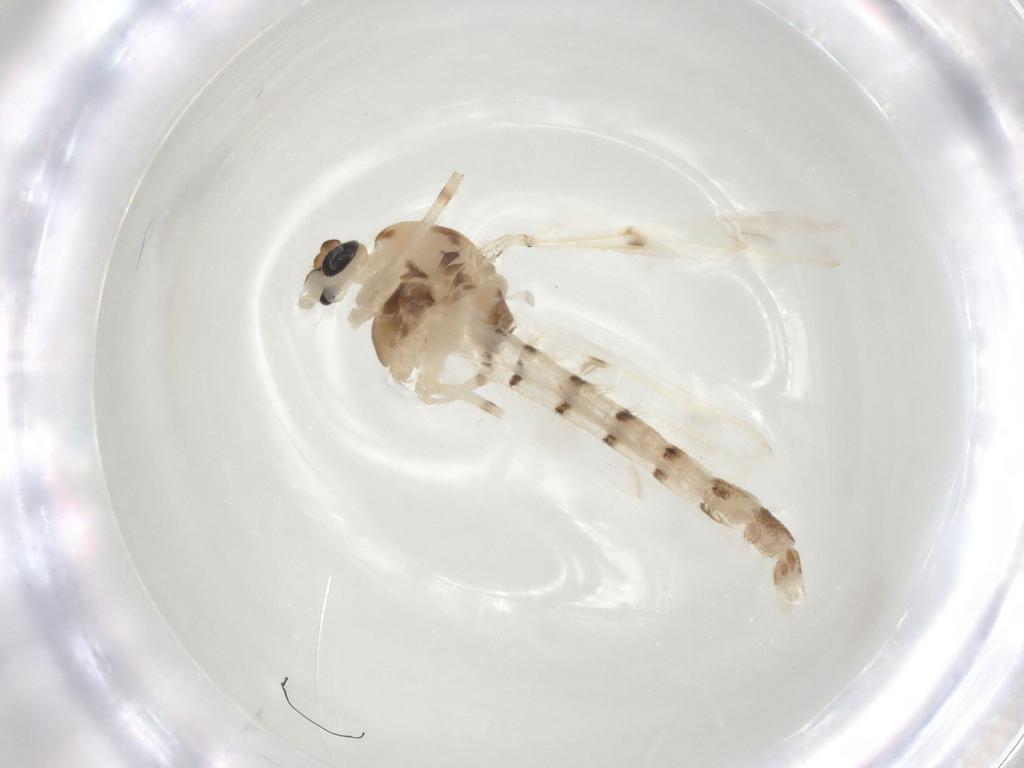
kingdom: Animalia
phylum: Arthropoda
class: Insecta
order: Diptera
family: Chironomidae
